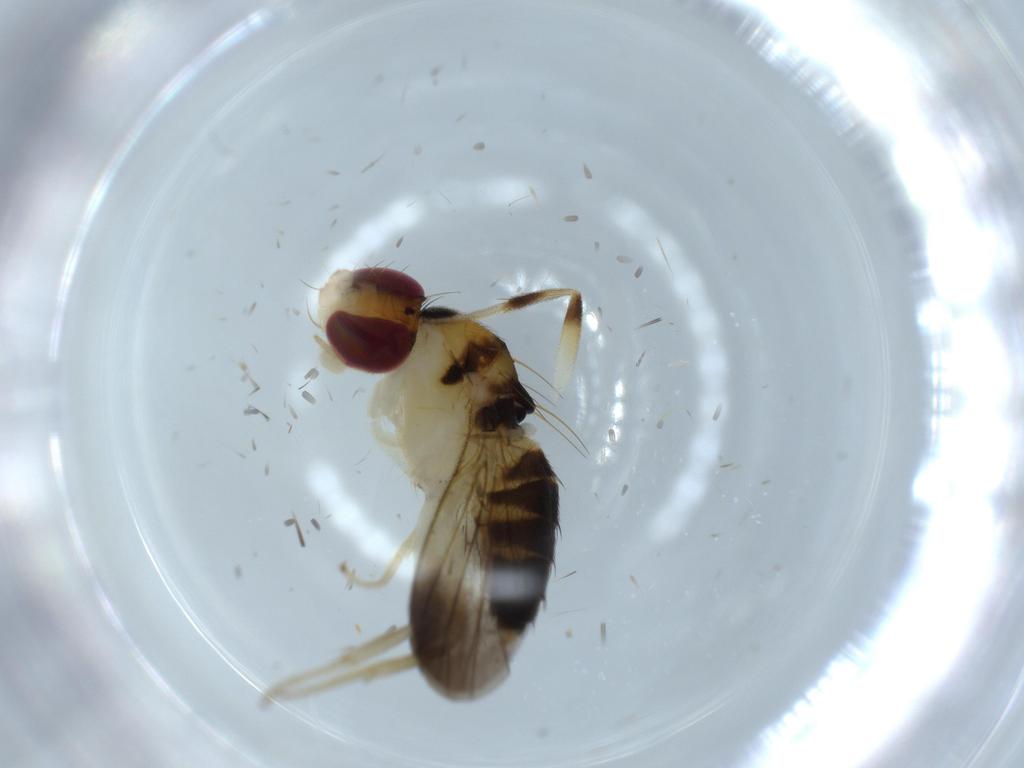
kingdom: Animalia
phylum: Arthropoda
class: Insecta
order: Diptera
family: Clusiidae
